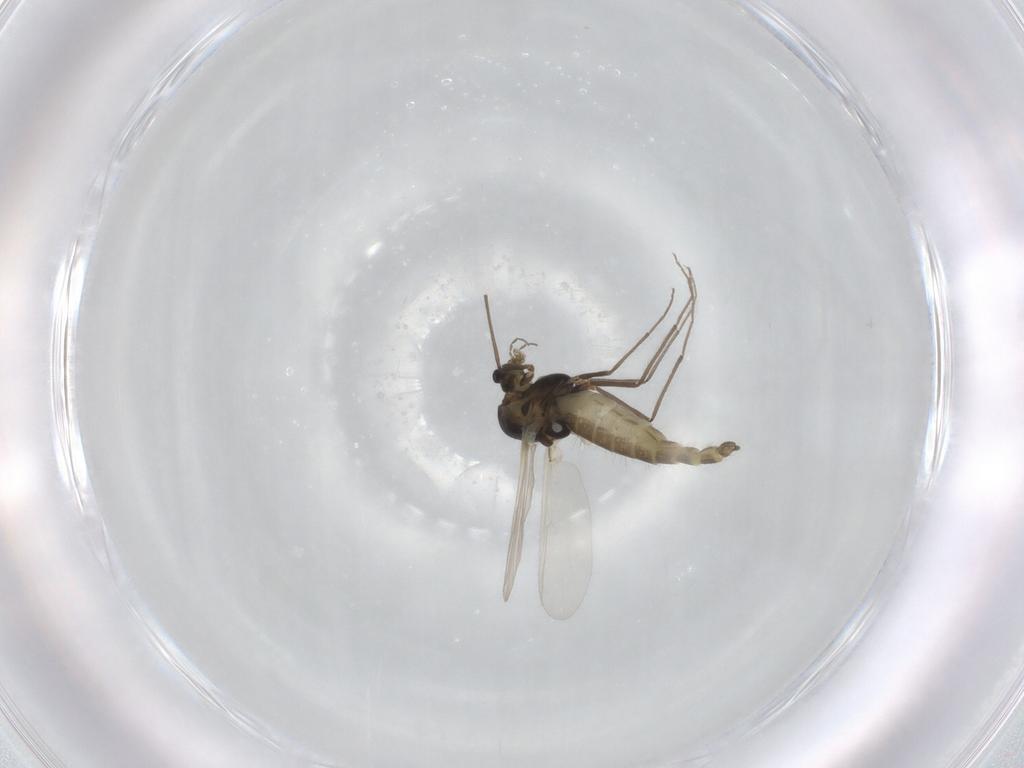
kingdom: Animalia
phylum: Arthropoda
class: Insecta
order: Diptera
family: Chironomidae
